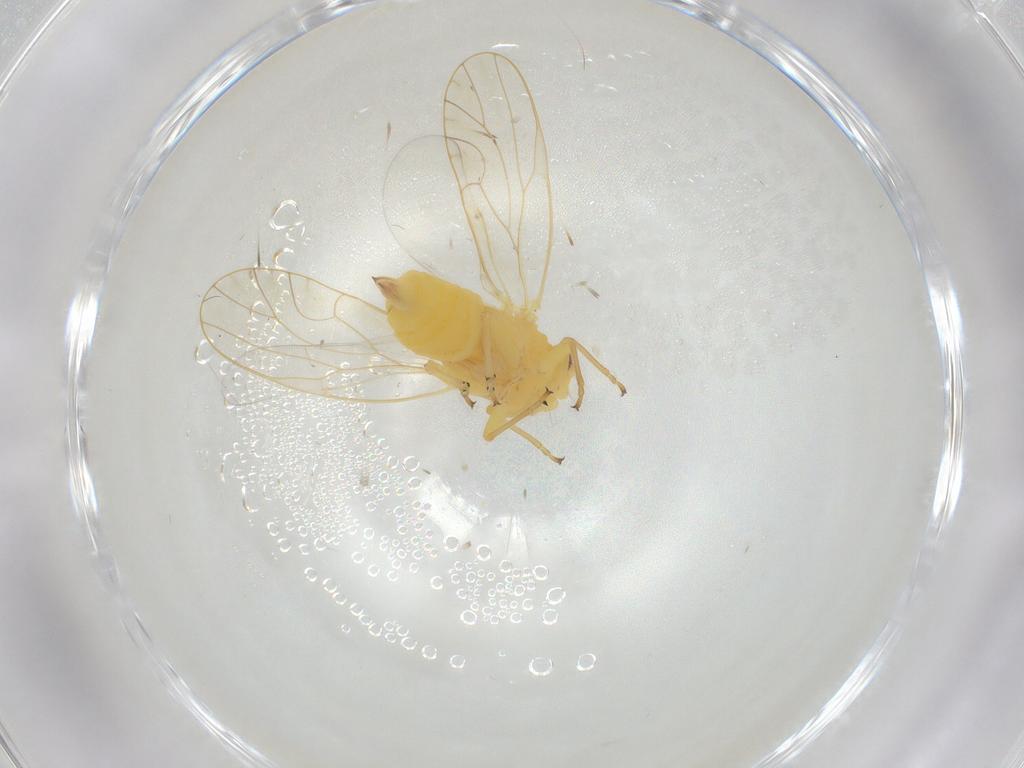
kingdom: Animalia
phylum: Arthropoda
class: Insecta
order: Hemiptera
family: Psyllidae
